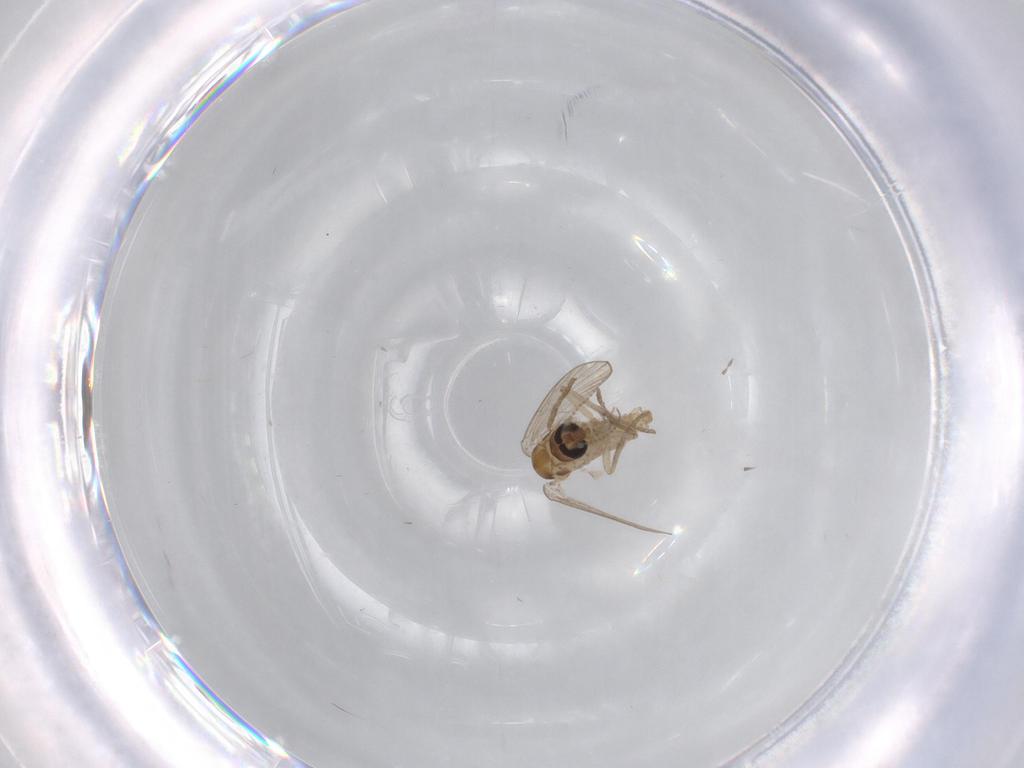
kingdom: Animalia
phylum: Arthropoda
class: Insecta
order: Diptera
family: Psychodidae
